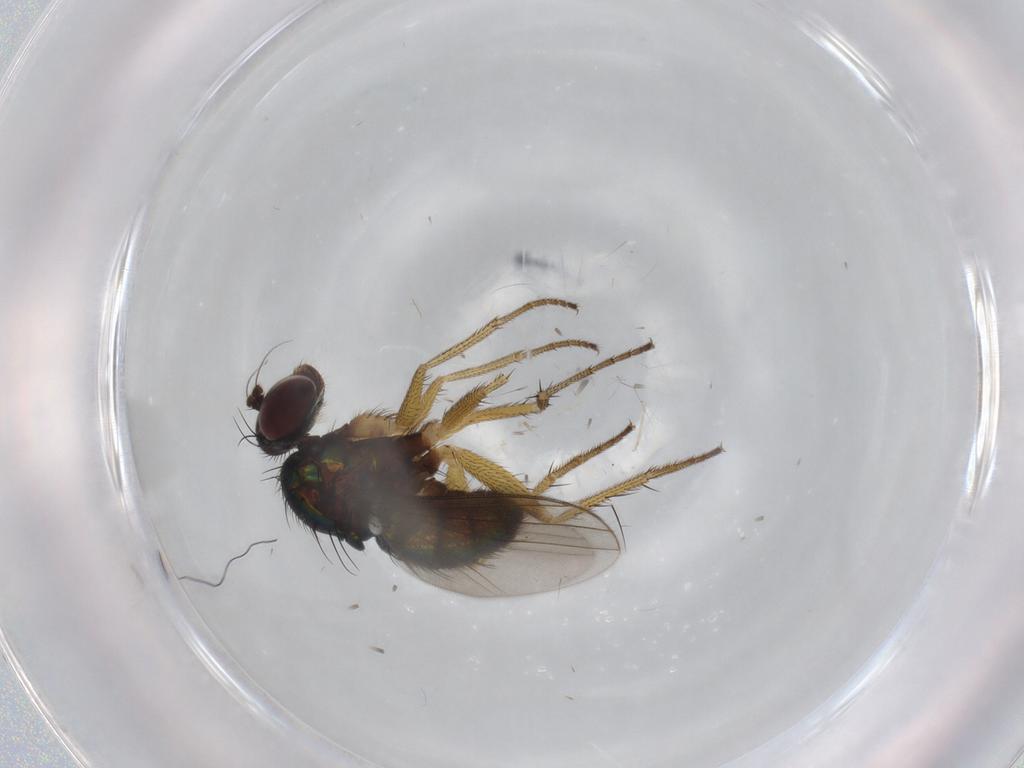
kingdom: Animalia
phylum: Arthropoda
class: Insecta
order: Diptera
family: Dolichopodidae
